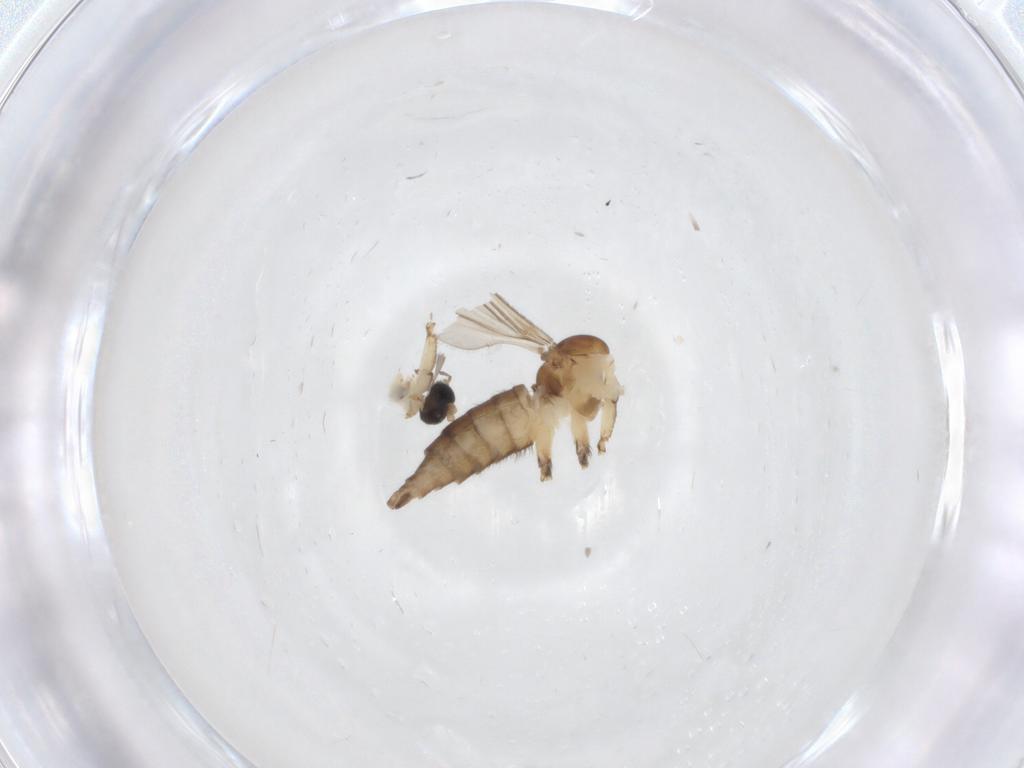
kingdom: Animalia
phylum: Arthropoda
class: Insecta
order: Diptera
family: Sciaridae
